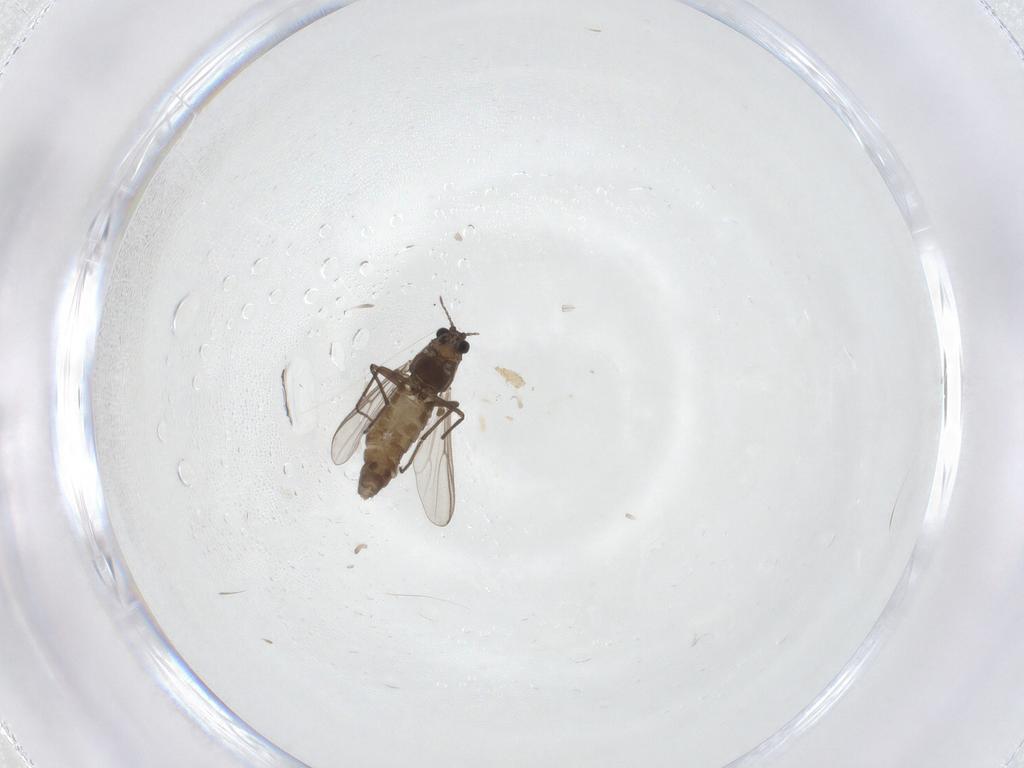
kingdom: Animalia
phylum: Arthropoda
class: Insecta
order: Diptera
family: Chironomidae
